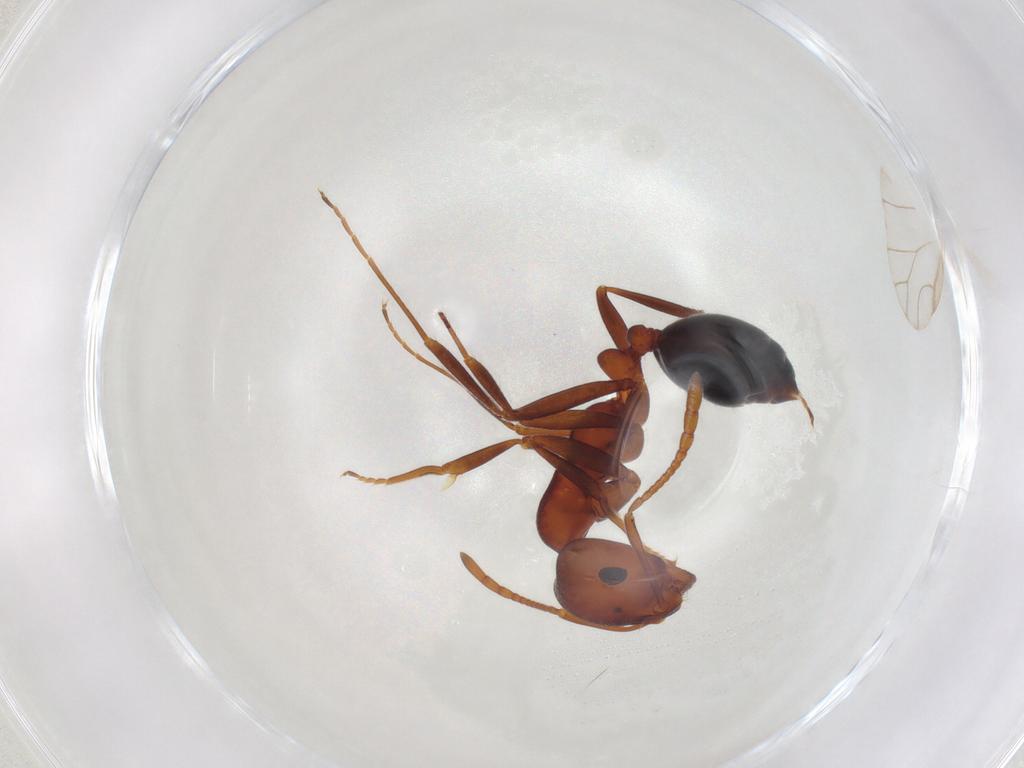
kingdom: Animalia
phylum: Arthropoda
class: Insecta
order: Hymenoptera
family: Formicidae
